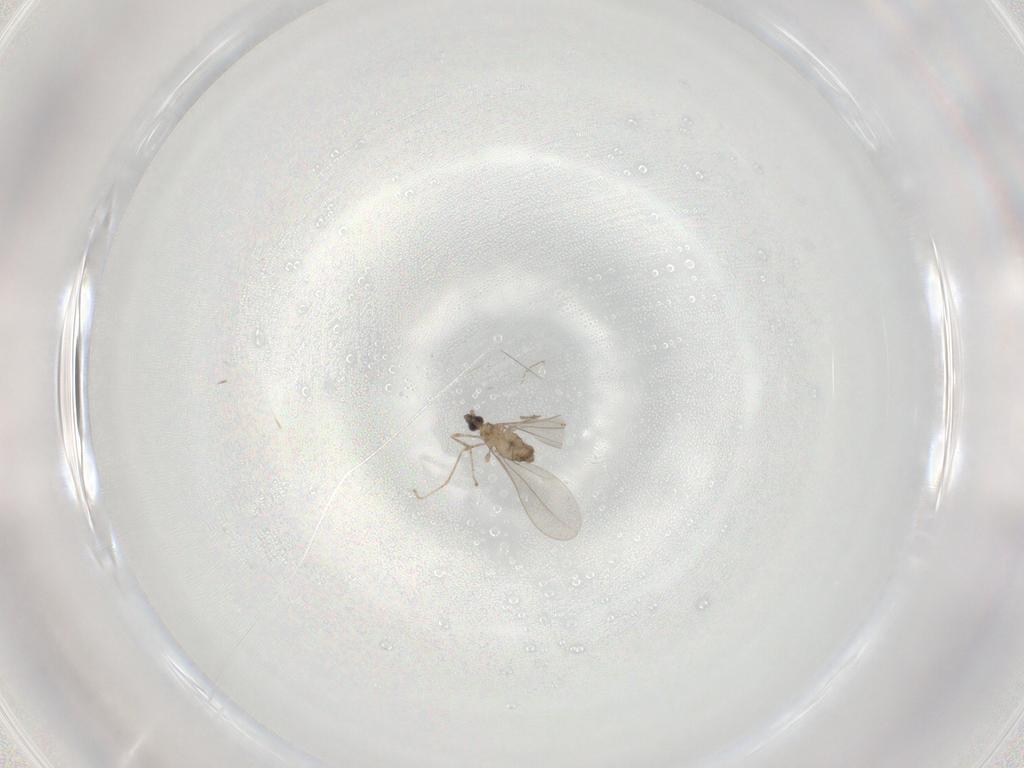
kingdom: Animalia
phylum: Arthropoda
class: Insecta
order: Diptera
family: Cecidomyiidae
